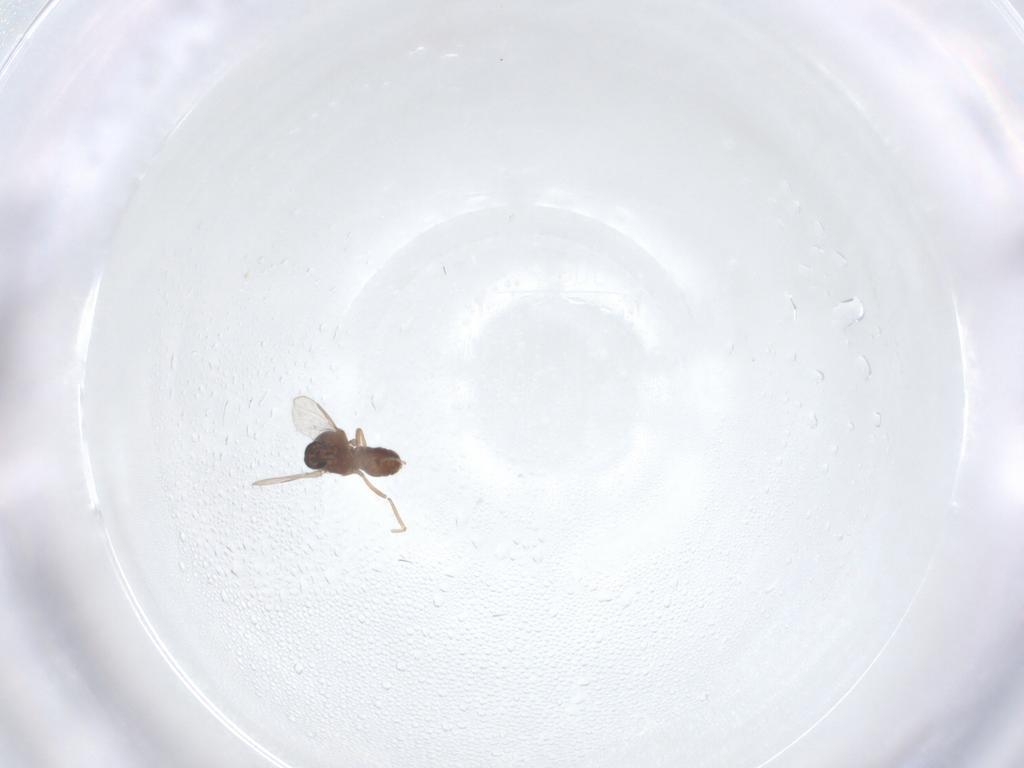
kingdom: Animalia
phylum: Arthropoda
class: Insecta
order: Diptera
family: Ceratopogonidae
